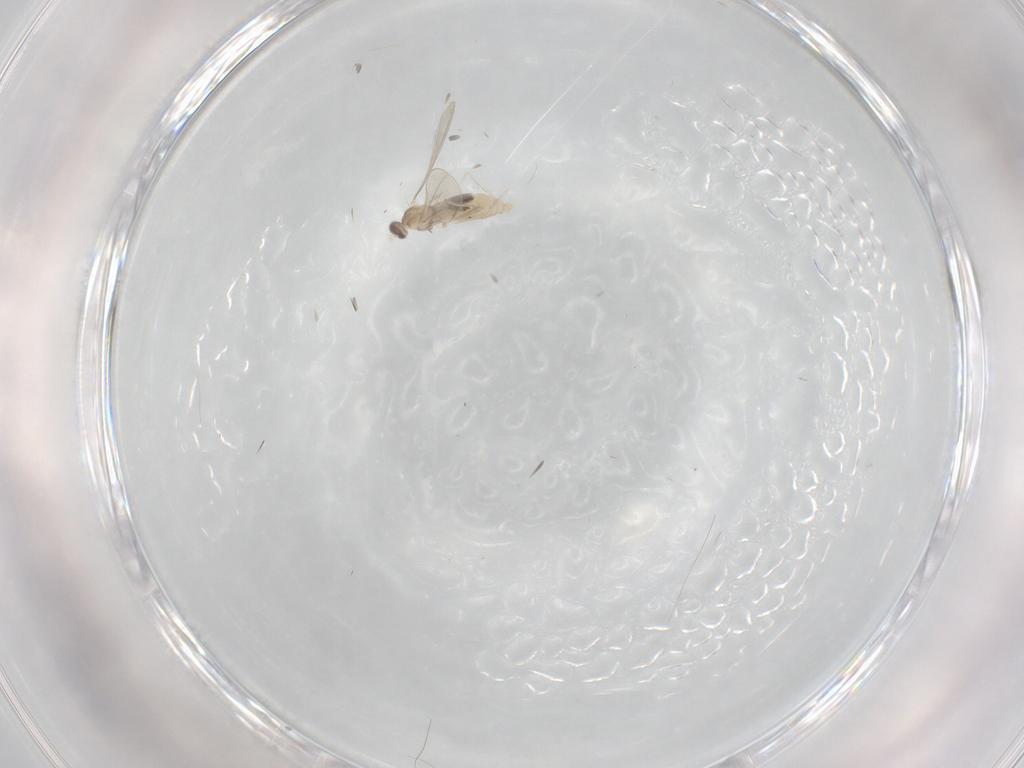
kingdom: Animalia
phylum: Arthropoda
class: Insecta
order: Diptera
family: Cecidomyiidae
